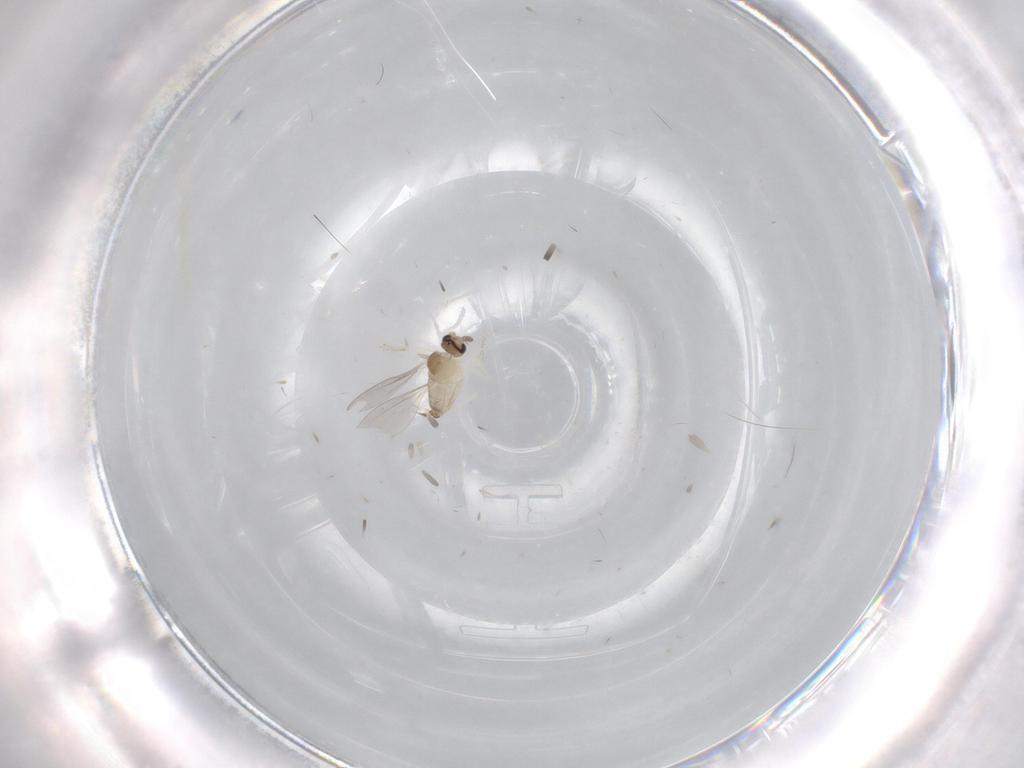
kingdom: Animalia
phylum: Arthropoda
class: Insecta
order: Diptera
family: Cecidomyiidae
